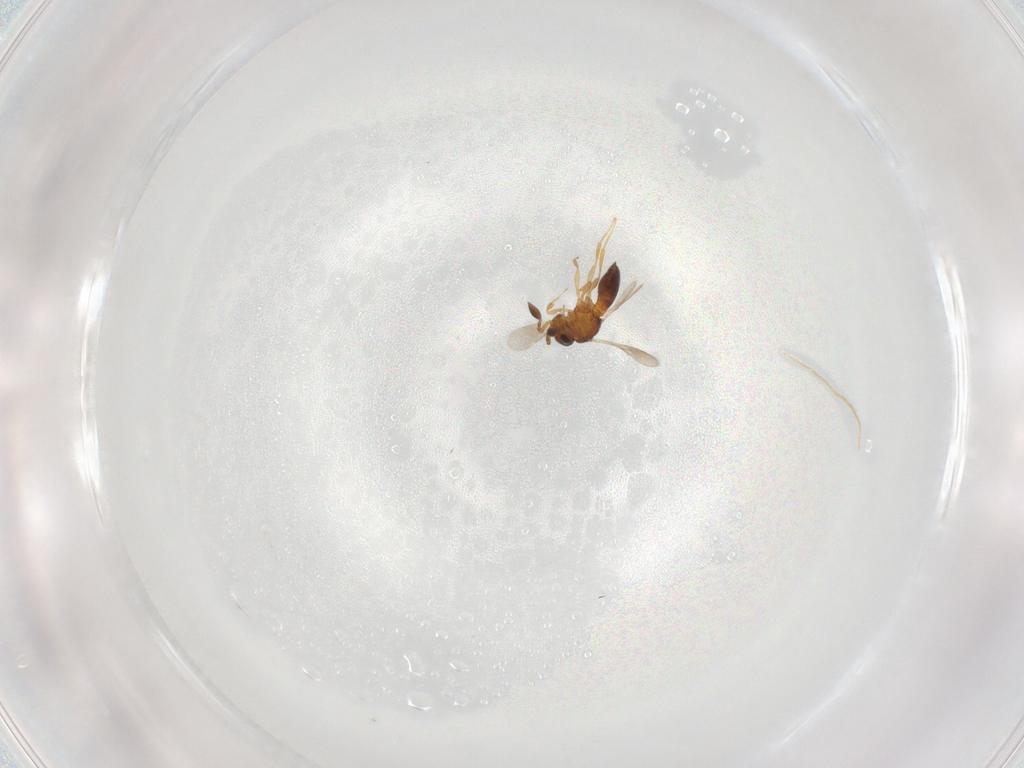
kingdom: Animalia
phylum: Arthropoda
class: Insecta
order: Hymenoptera
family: Scelionidae
